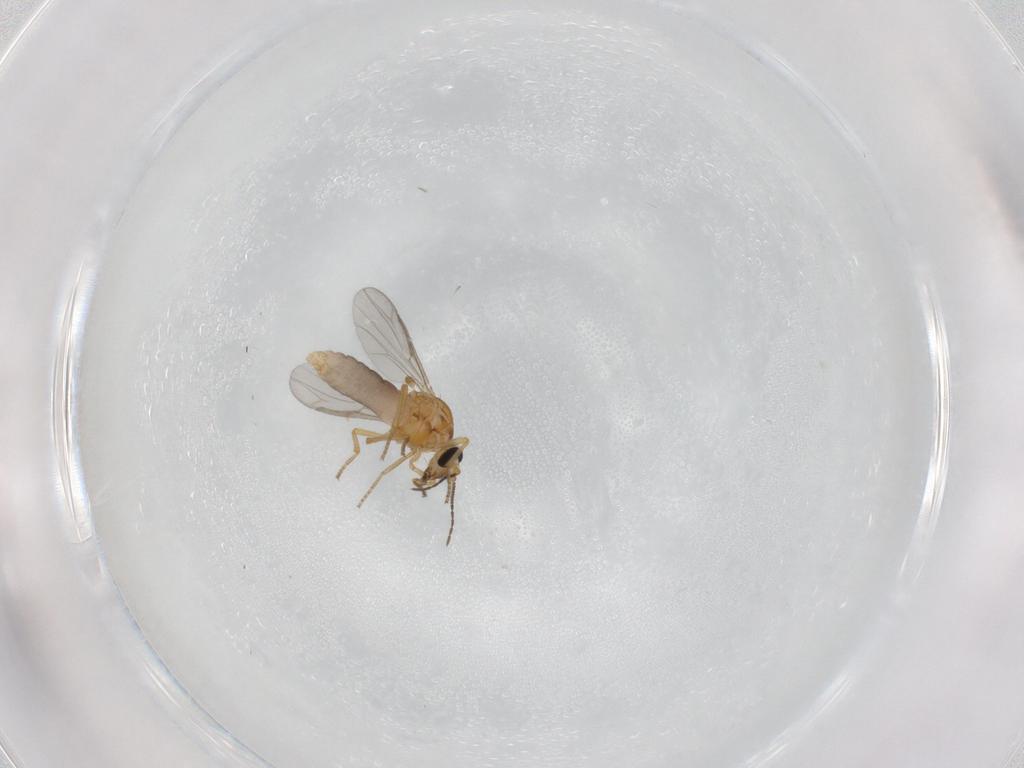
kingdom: Animalia
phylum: Arthropoda
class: Insecta
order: Diptera
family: Ceratopogonidae
